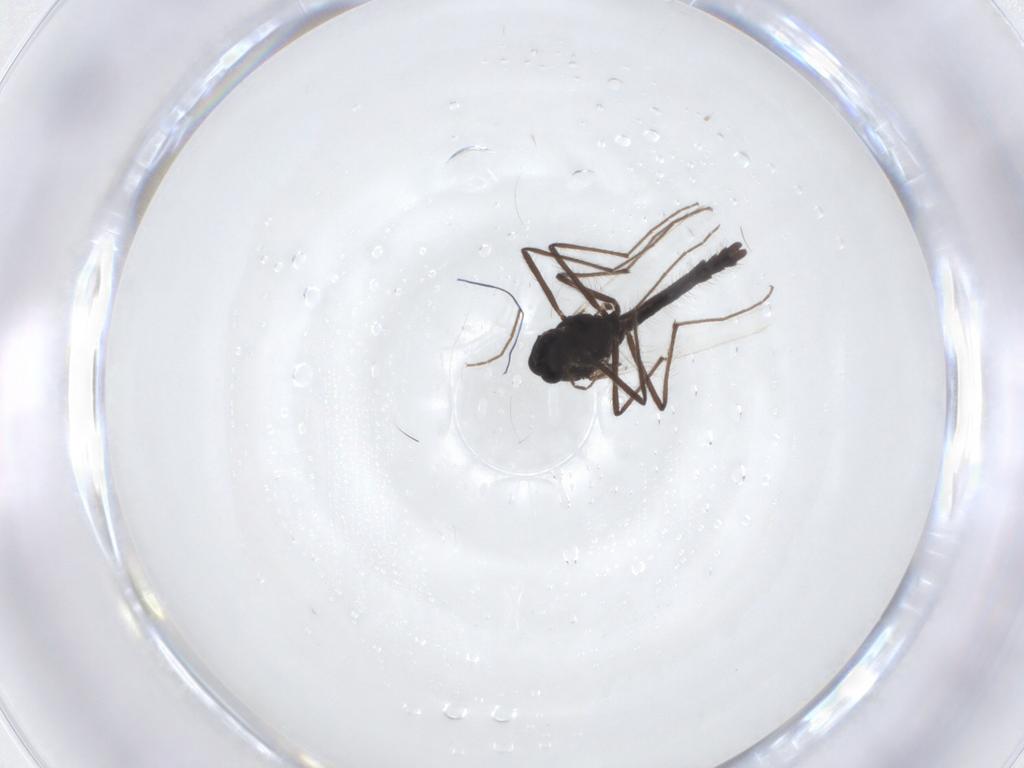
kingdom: Animalia
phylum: Arthropoda
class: Insecta
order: Diptera
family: Chironomidae
